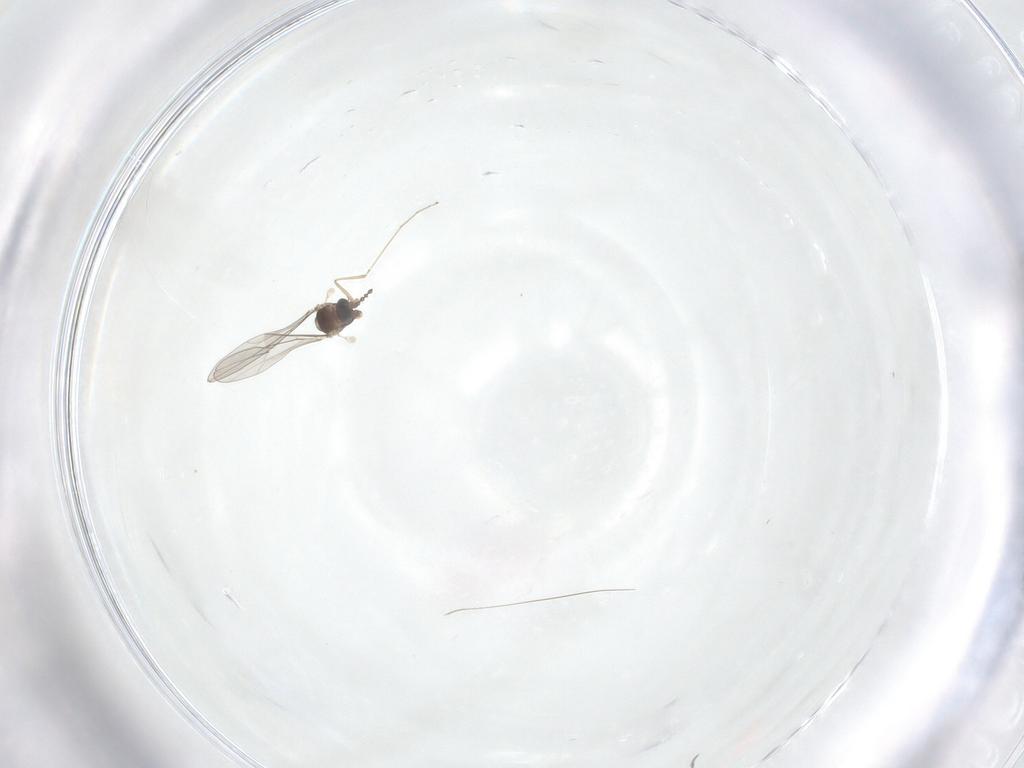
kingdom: Animalia
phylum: Arthropoda
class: Insecta
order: Diptera
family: Cecidomyiidae
